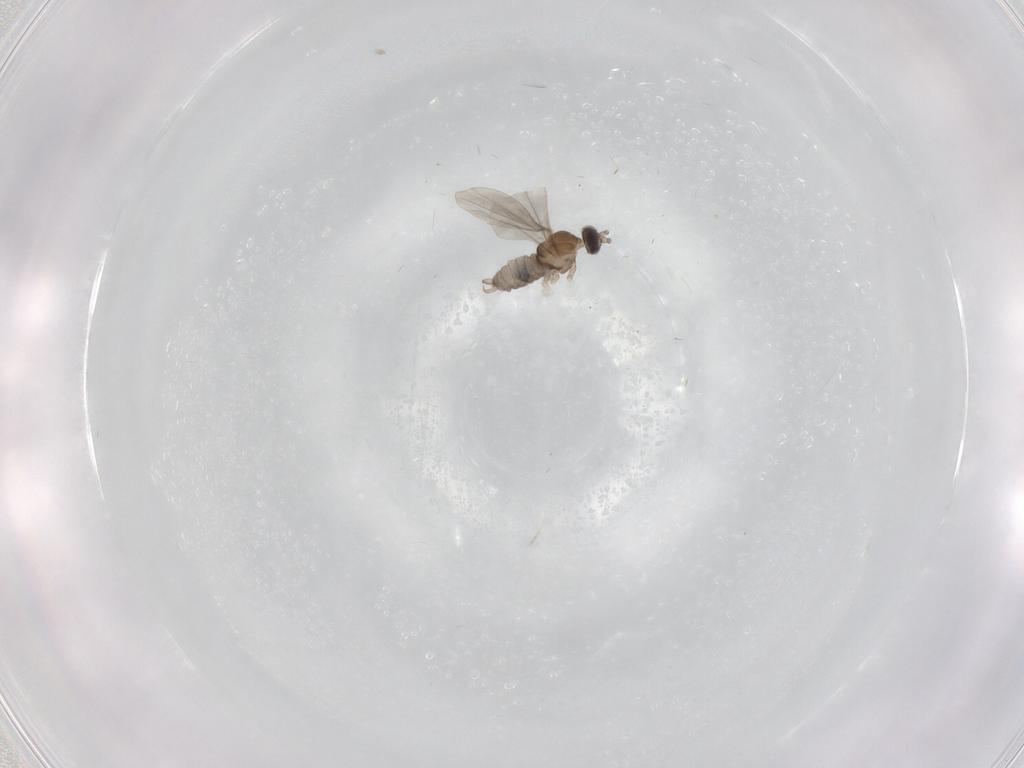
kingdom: Animalia
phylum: Arthropoda
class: Insecta
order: Diptera
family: Cecidomyiidae
